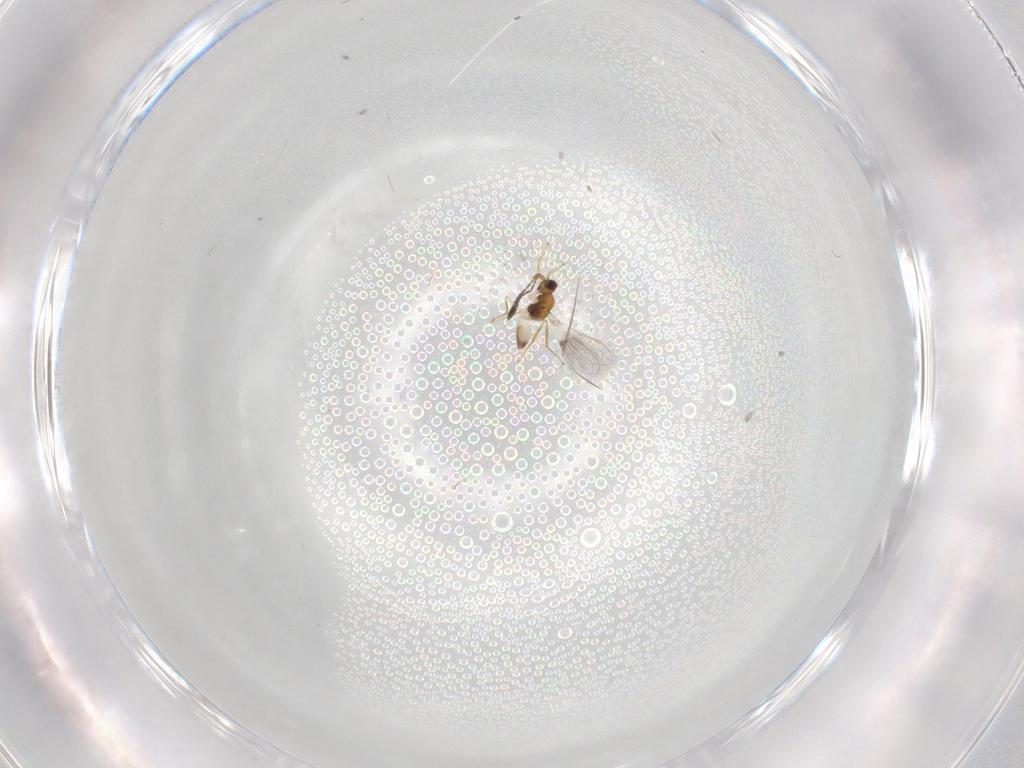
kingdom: Animalia
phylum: Arthropoda
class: Insecta
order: Hymenoptera
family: Mymaridae
